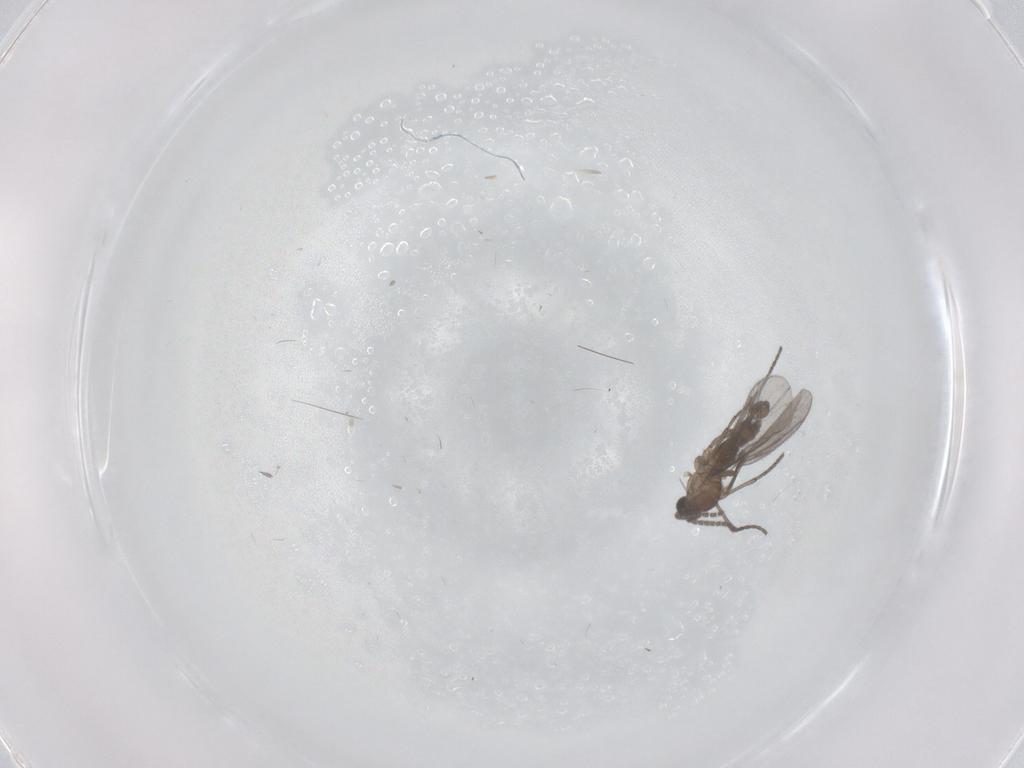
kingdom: Animalia
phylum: Arthropoda
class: Insecta
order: Diptera
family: Sciaridae
